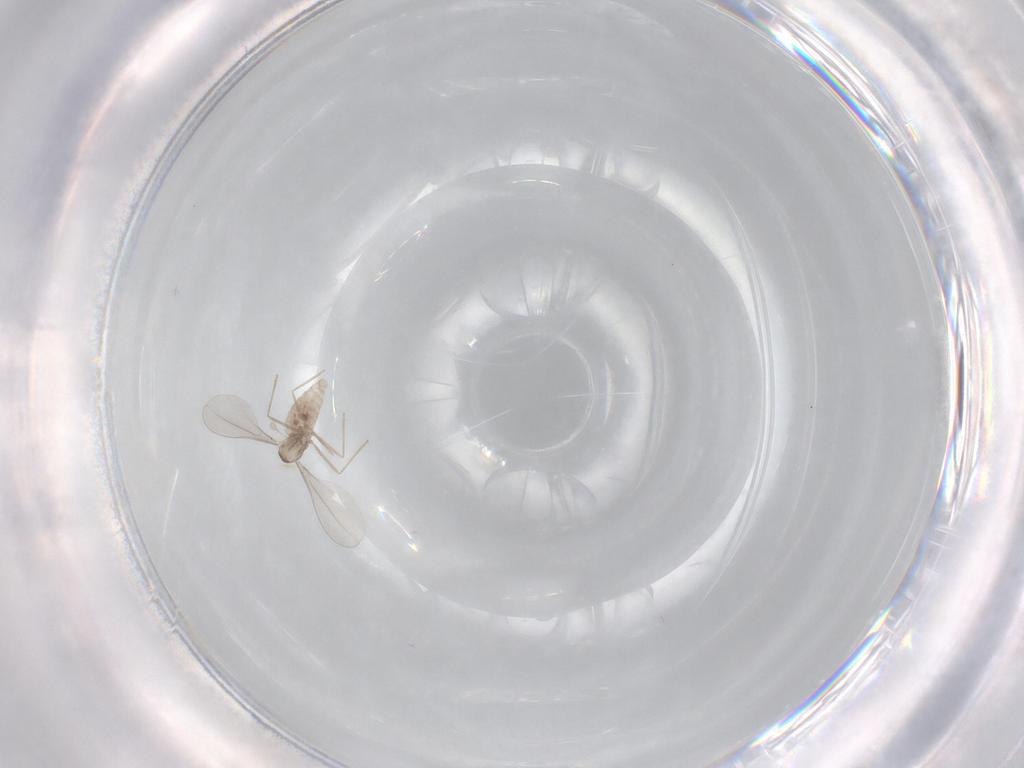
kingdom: Animalia
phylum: Arthropoda
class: Insecta
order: Diptera
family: Cecidomyiidae
